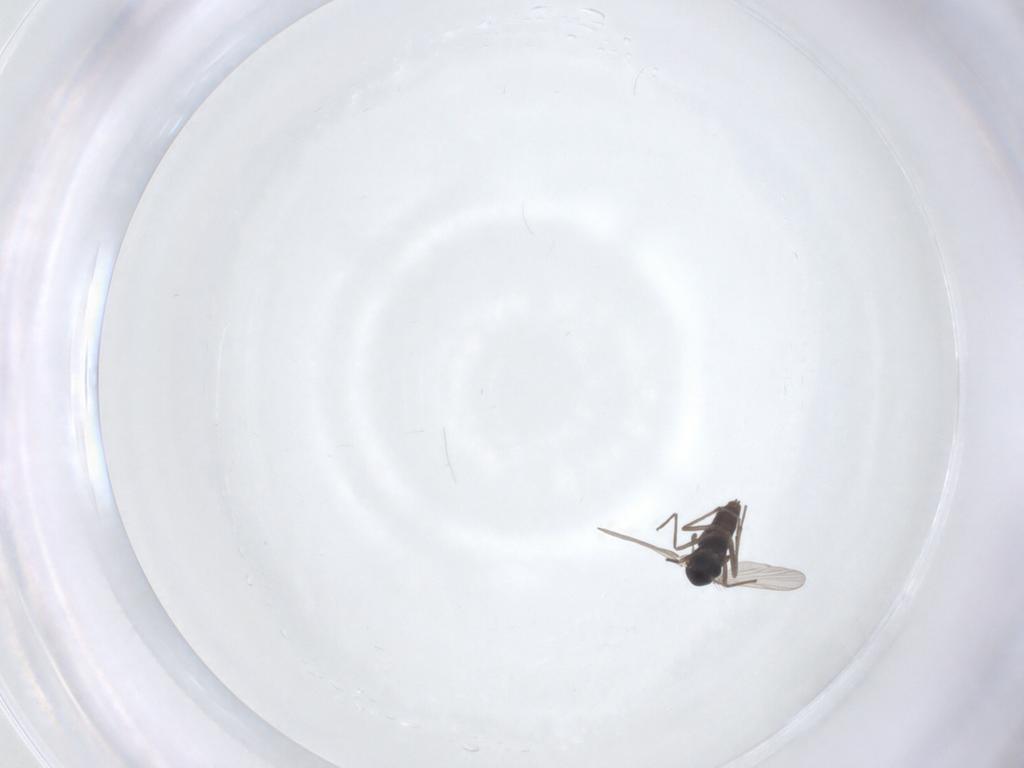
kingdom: Animalia
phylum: Arthropoda
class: Insecta
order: Diptera
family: Chironomidae
